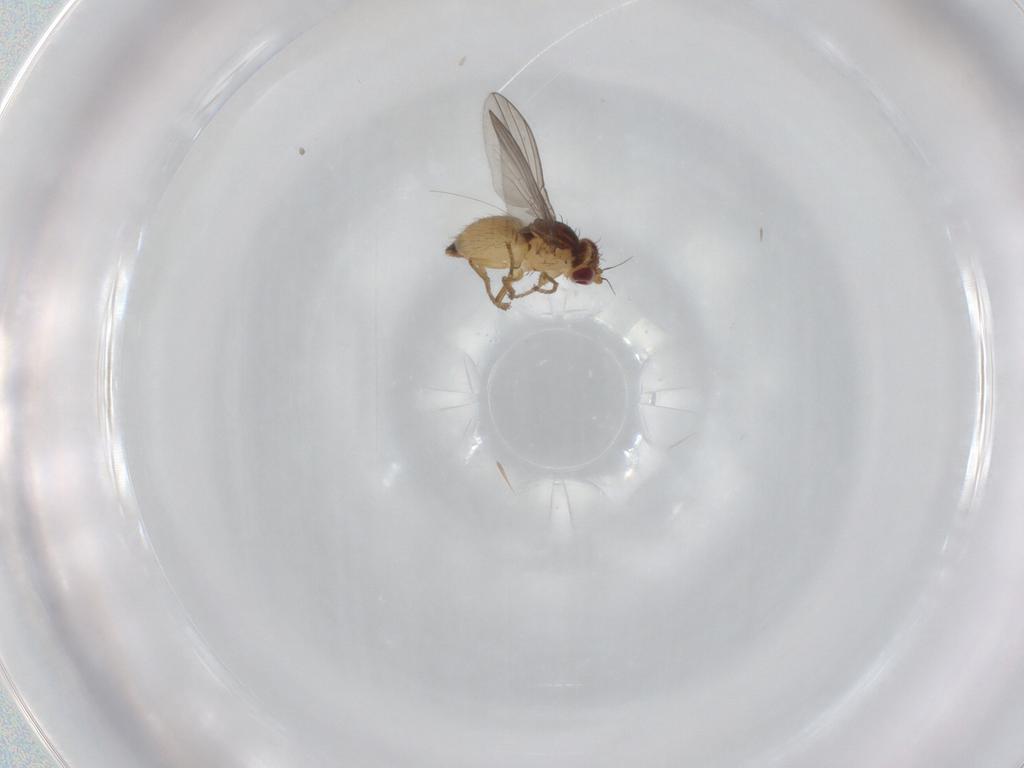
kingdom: Animalia
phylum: Arthropoda
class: Insecta
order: Diptera
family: Agromyzidae
